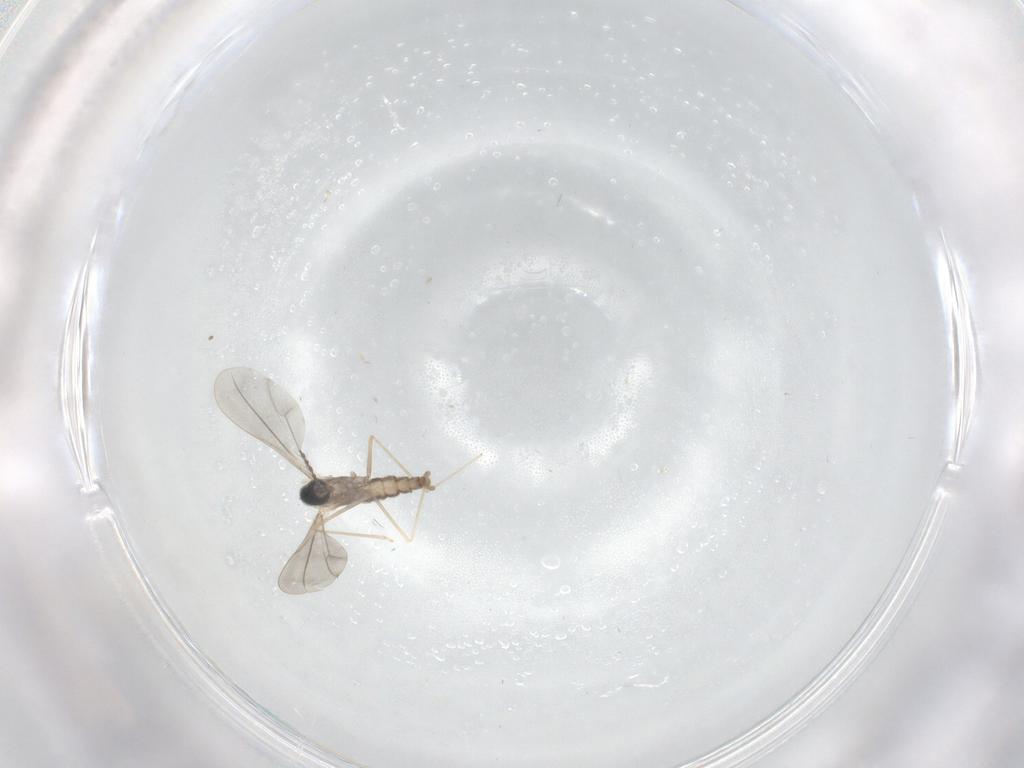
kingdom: Animalia
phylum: Arthropoda
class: Insecta
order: Diptera
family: Cecidomyiidae
